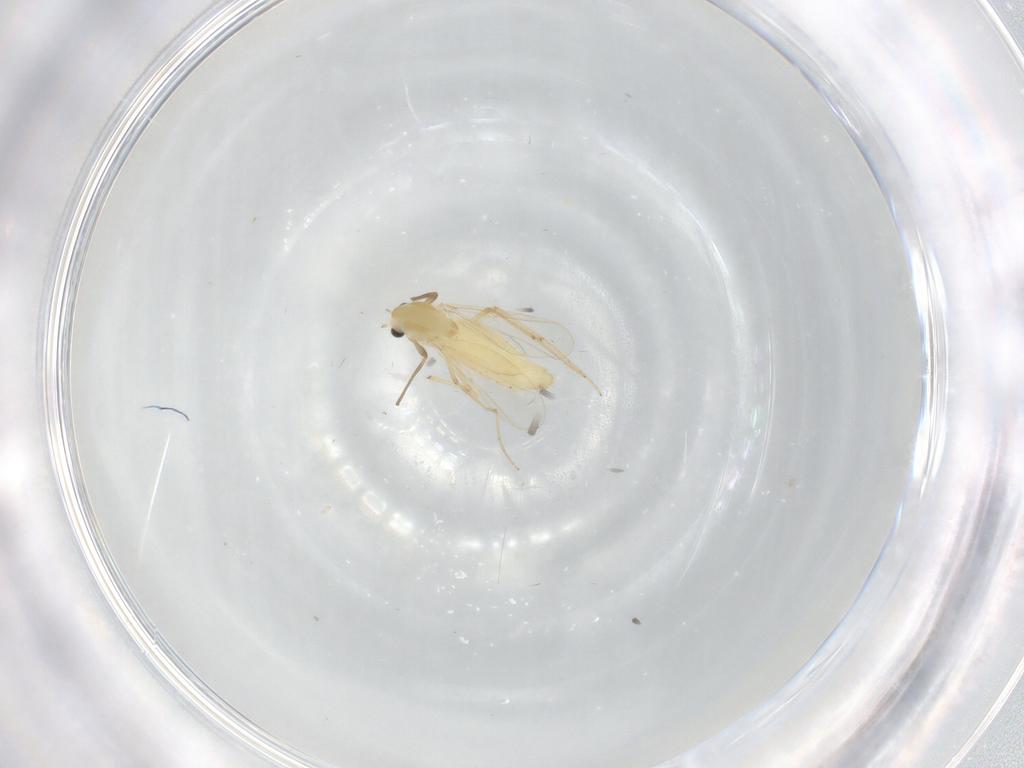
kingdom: Animalia
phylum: Arthropoda
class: Insecta
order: Diptera
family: Chironomidae
